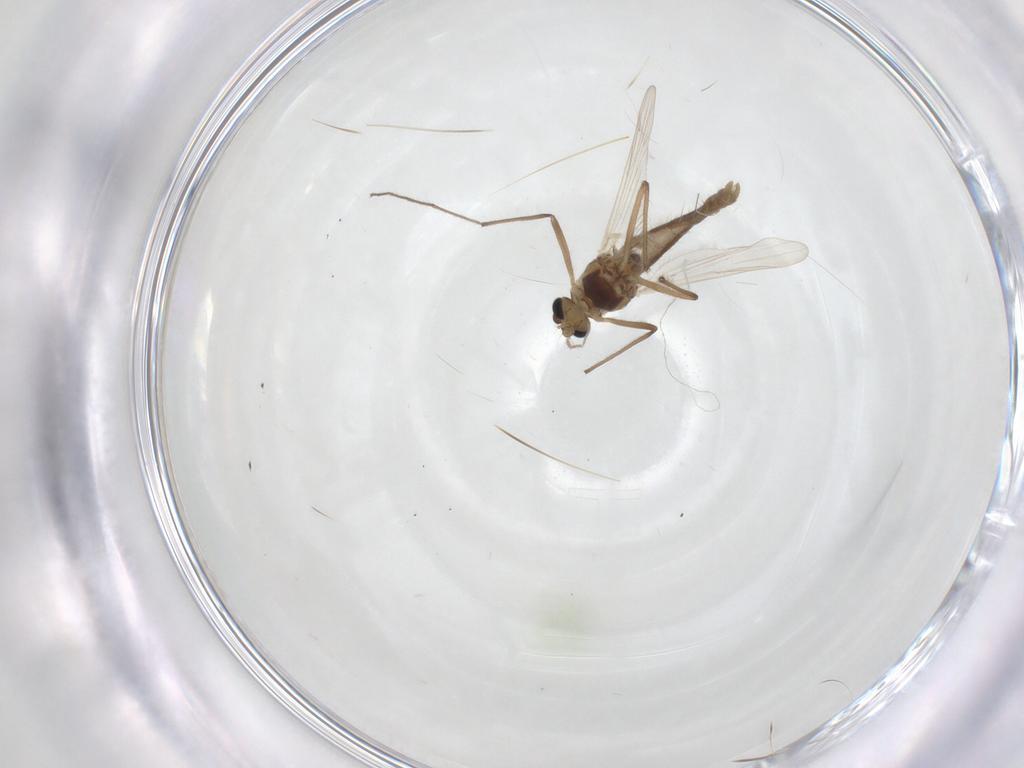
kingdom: Animalia
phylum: Arthropoda
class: Insecta
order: Diptera
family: Chironomidae
